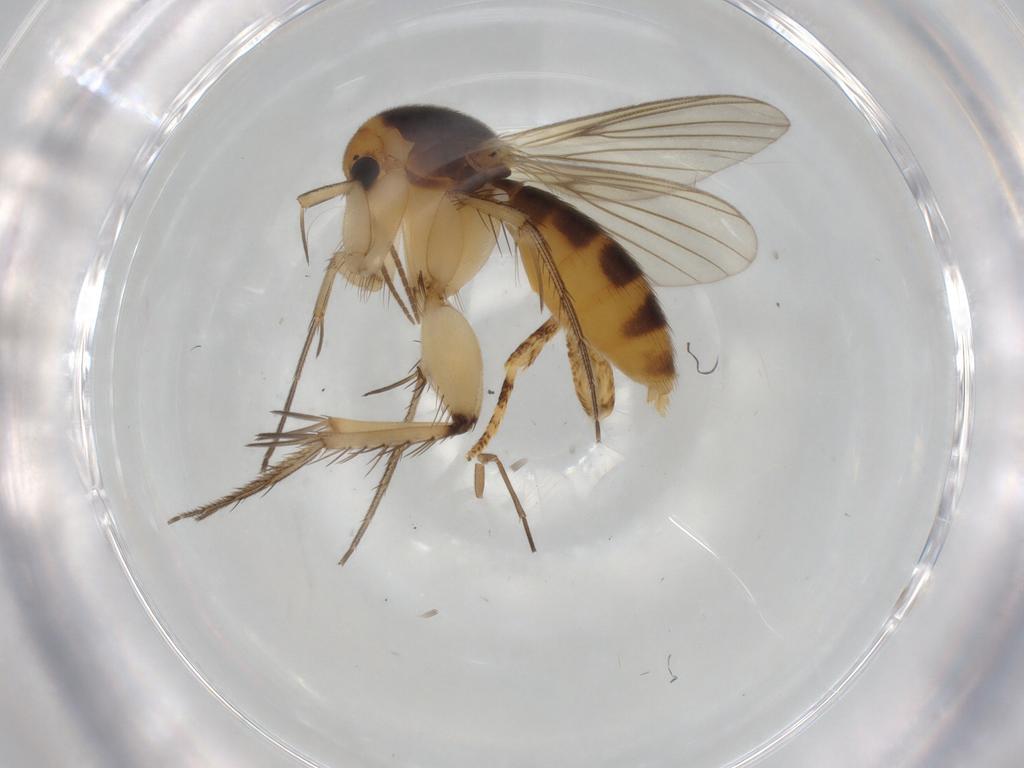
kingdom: Animalia
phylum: Arthropoda
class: Insecta
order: Diptera
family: Mycetophilidae
